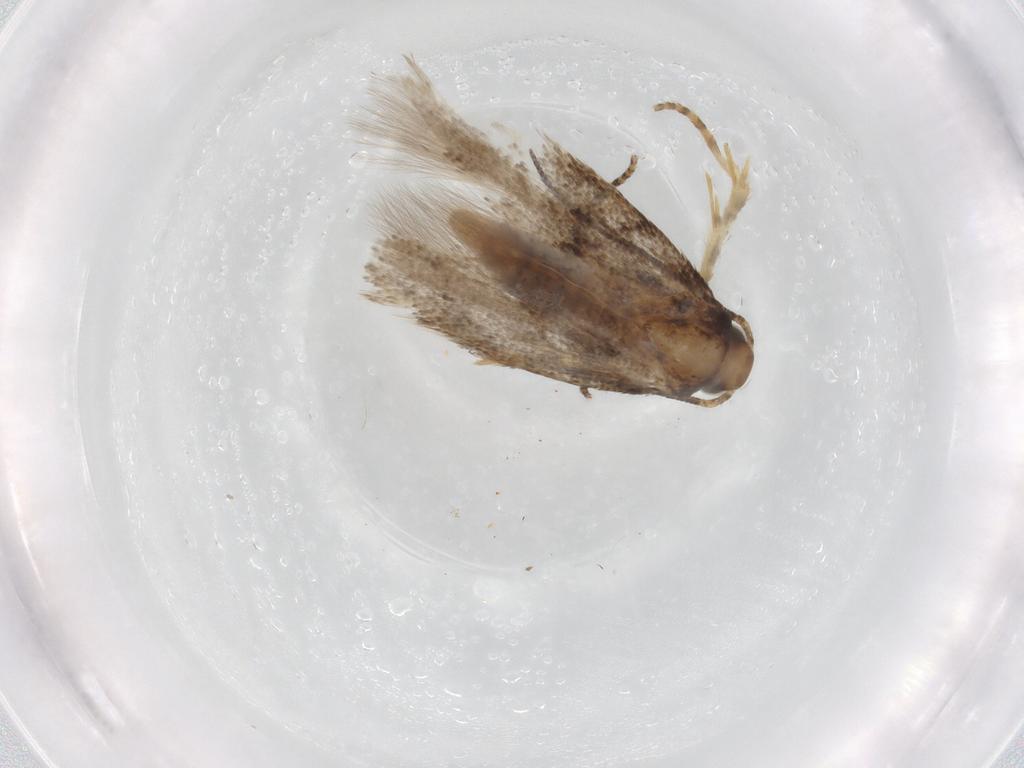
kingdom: Animalia
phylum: Arthropoda
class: Insecta
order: Lepidoptera
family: Gelechiidae
